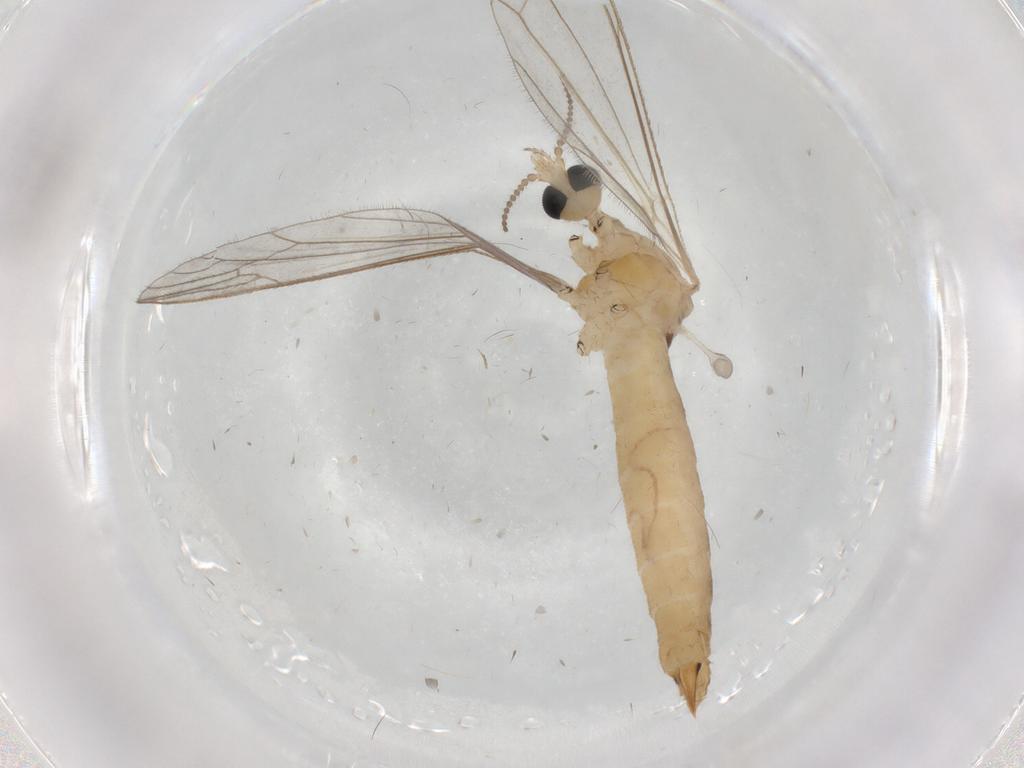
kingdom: Animalia
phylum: Arthropoda
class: Insecta
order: Diptera
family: Limoniidae
